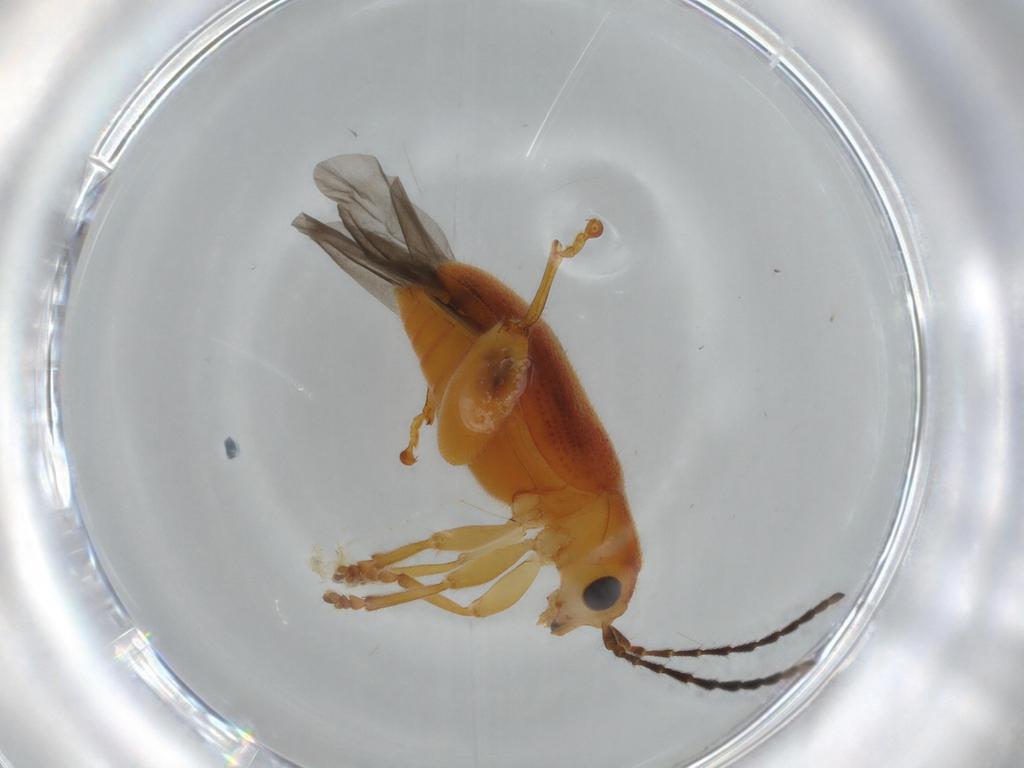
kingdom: Animalia
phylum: Arthropoda
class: Insecta
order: Coleoptera
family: Chrysomelidae
